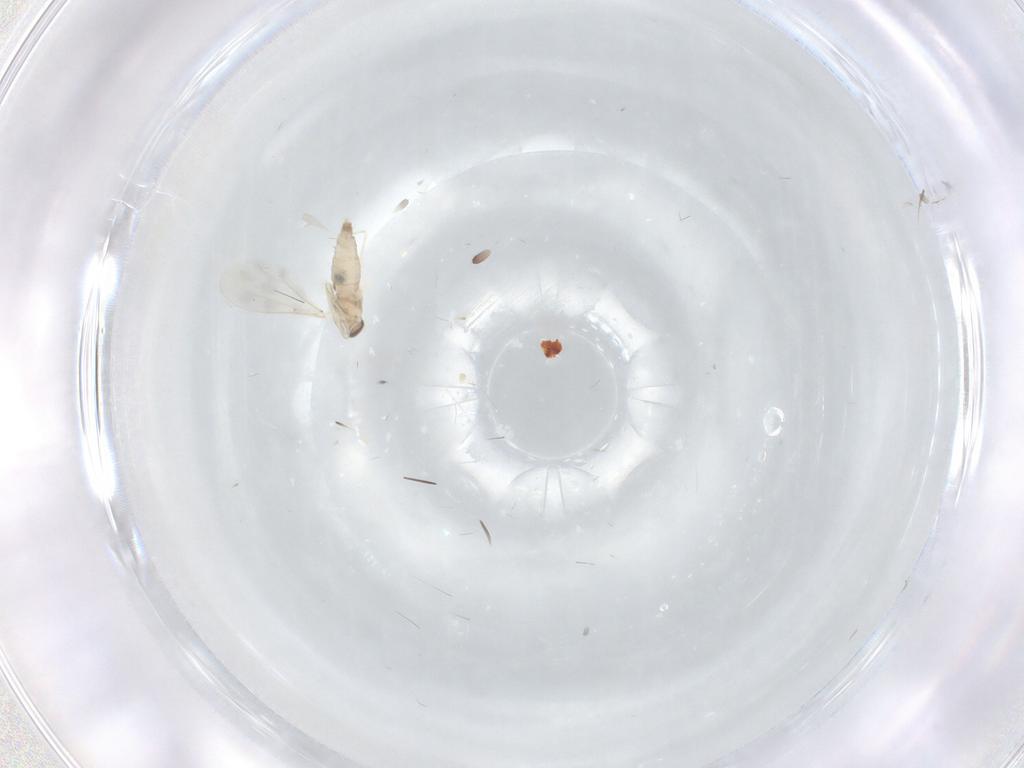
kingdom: Animalia
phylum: Arthropoda
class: Insecta
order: Diptera
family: Cecidomyiidae
